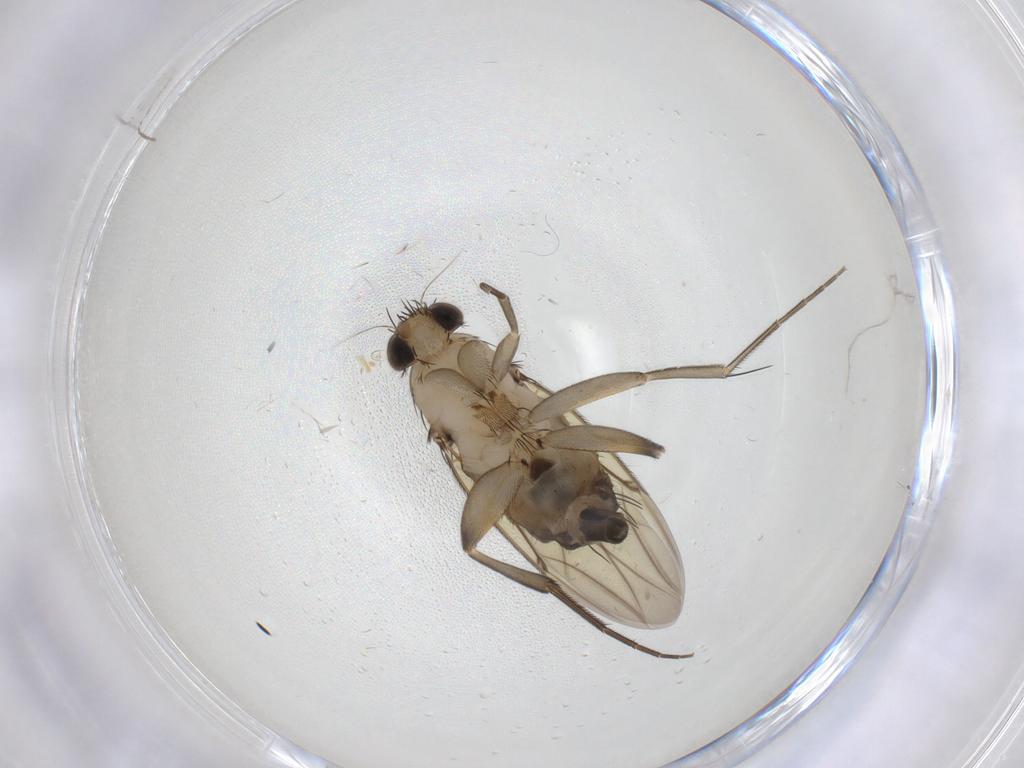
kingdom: Animalia
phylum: Arthropoda
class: Insecta
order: Diptera
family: Phoridae
